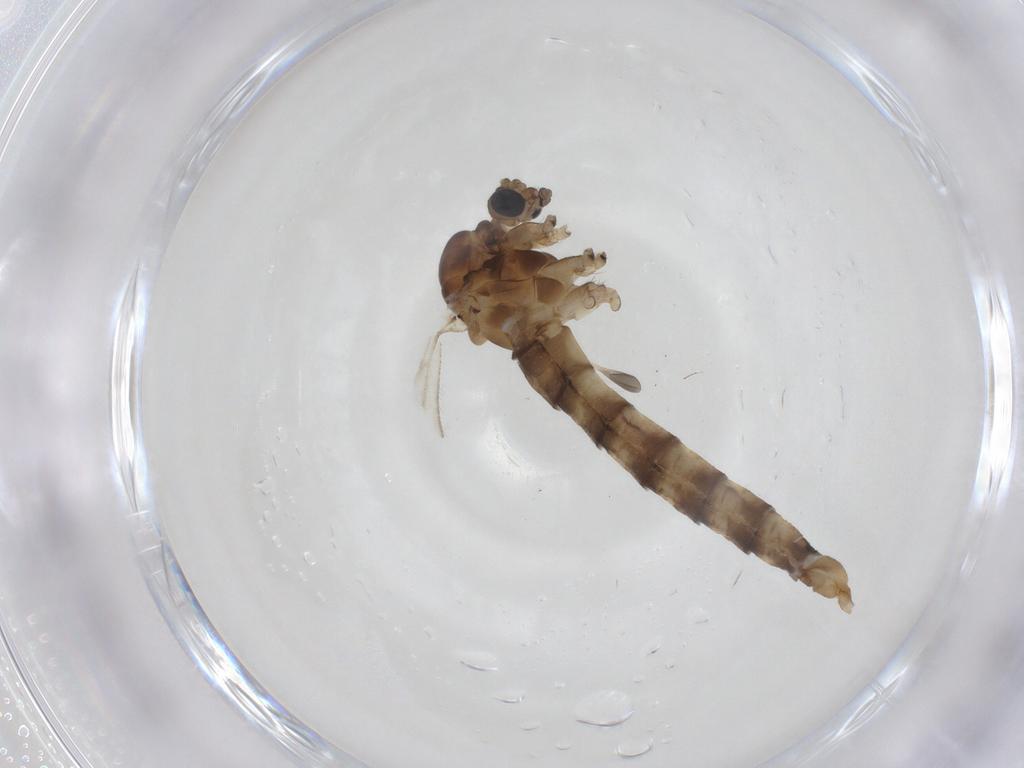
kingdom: Animalia
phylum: Arthropoda
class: Insecta
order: Diptera
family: Trichoceridae
